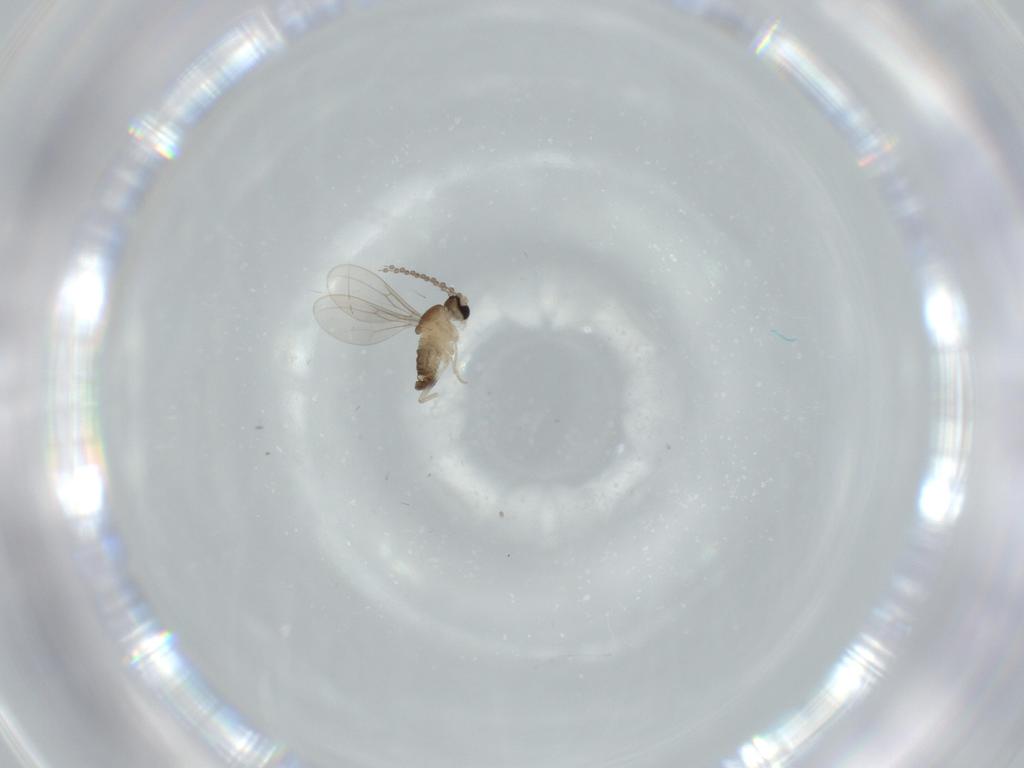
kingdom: Animalia
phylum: Arthropoda
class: Insecta
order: Diptera
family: Cecidomyiidae
